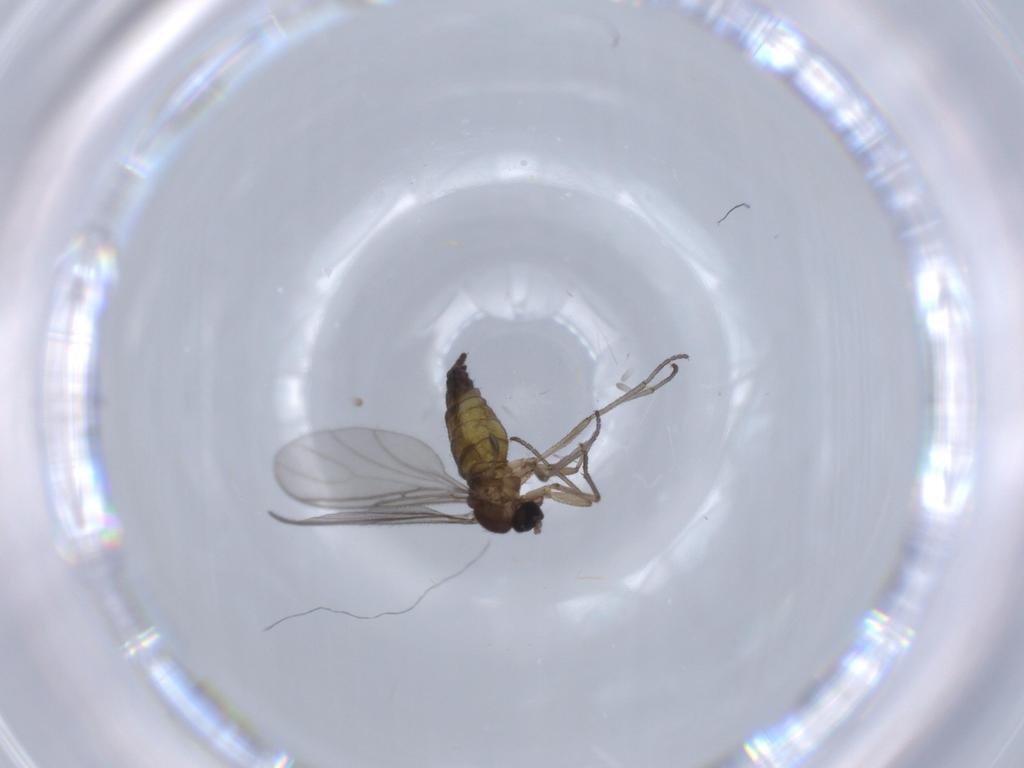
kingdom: Animalia
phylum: Arthropoda
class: Insecta
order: Diptera
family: Sciaridae
